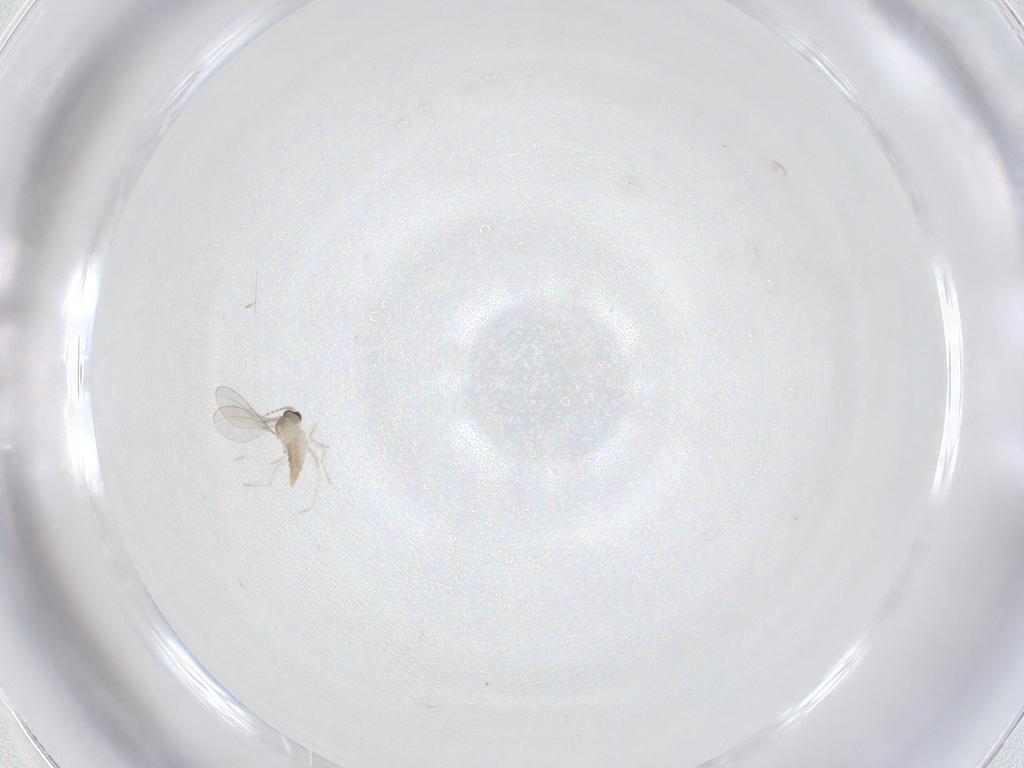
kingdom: Animalia
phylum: Arthropoda
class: Insecta
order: Diptera
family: Cecidomyiidae
